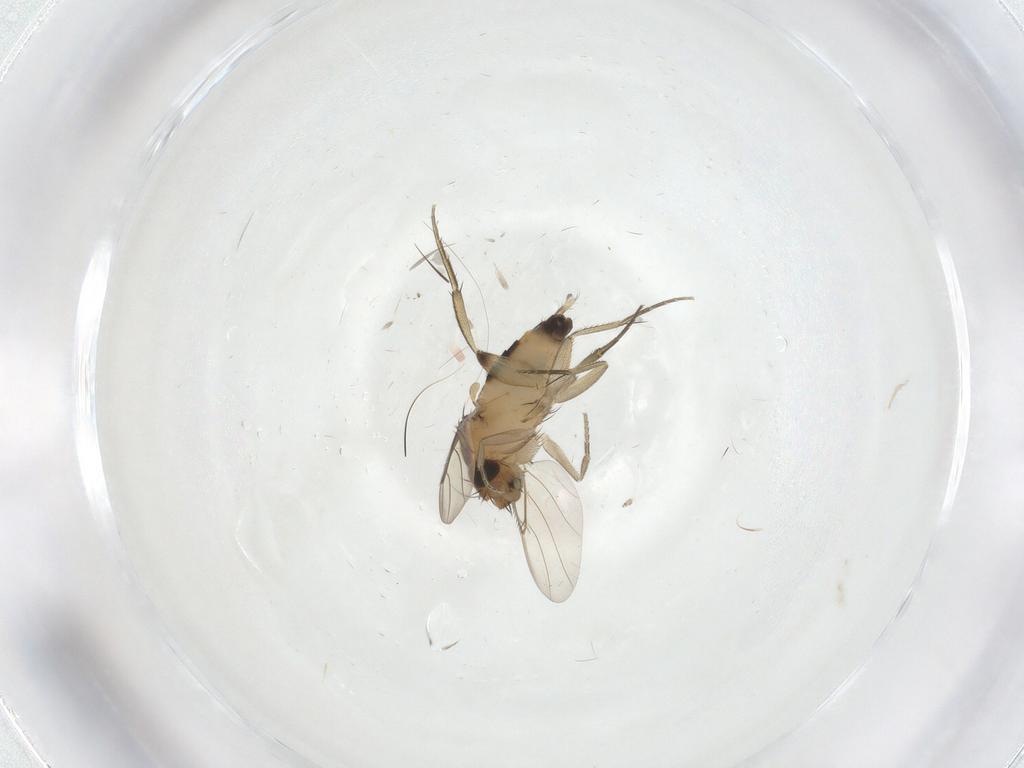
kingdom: Animalia
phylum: Arthropoda
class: Insecta
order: Diptera
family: Phoridae
